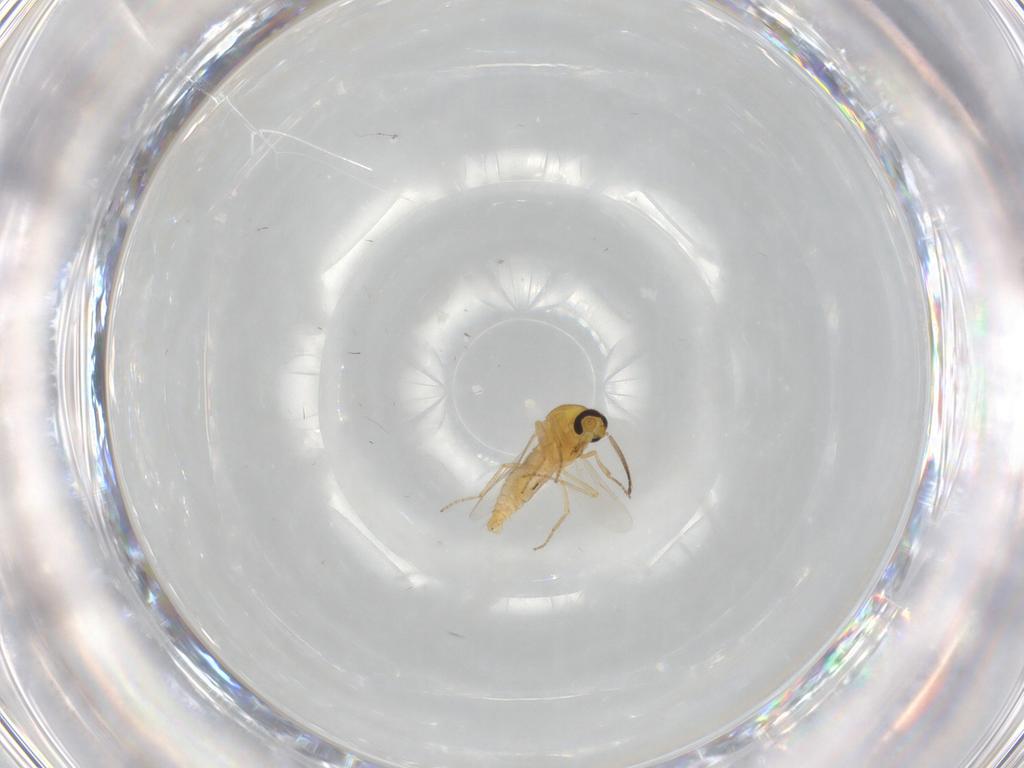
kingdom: Animalia
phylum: Arthropoda
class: Insecta
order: Diptera
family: Ceratopogonidae
